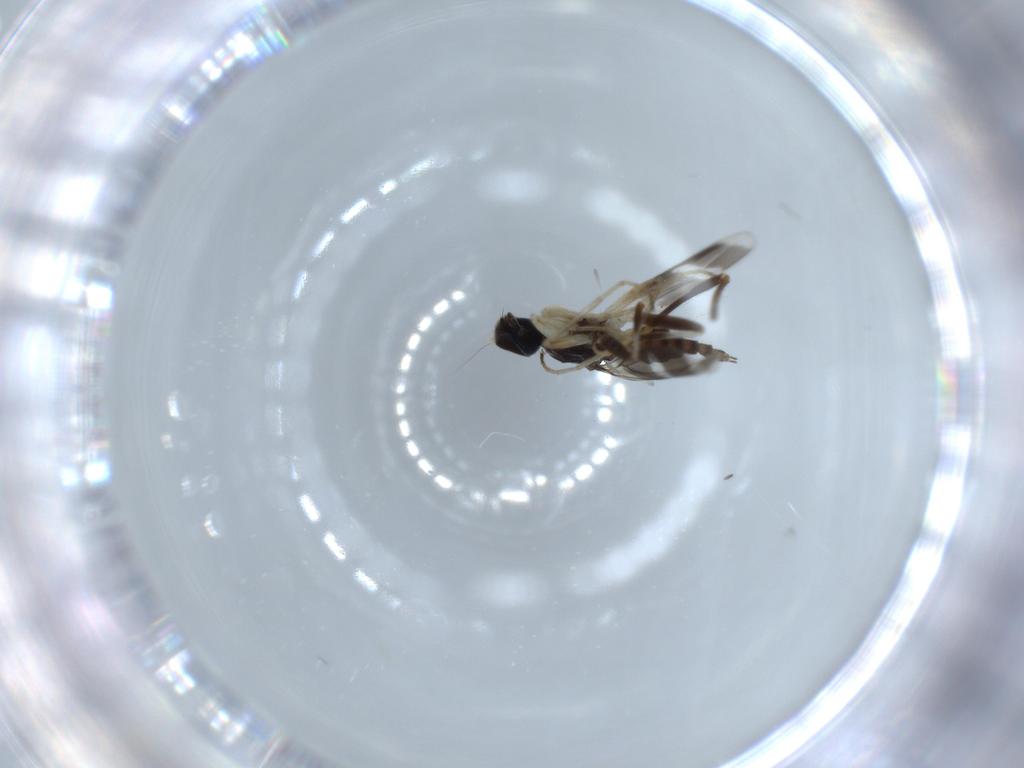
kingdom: Animalia
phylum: Arthropoda
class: Insecta
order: Diptera
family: Hybotidae
